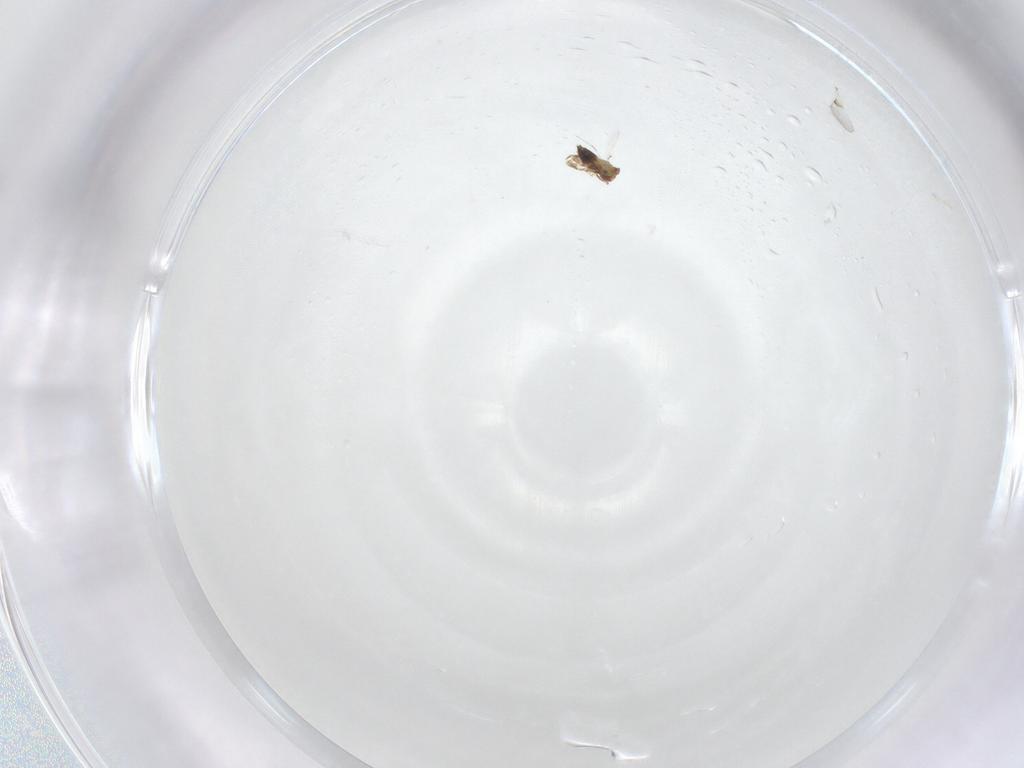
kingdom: Animalia
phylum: Arthropoda
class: Insecta
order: Hymenoptera
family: Trichogrammatidae
